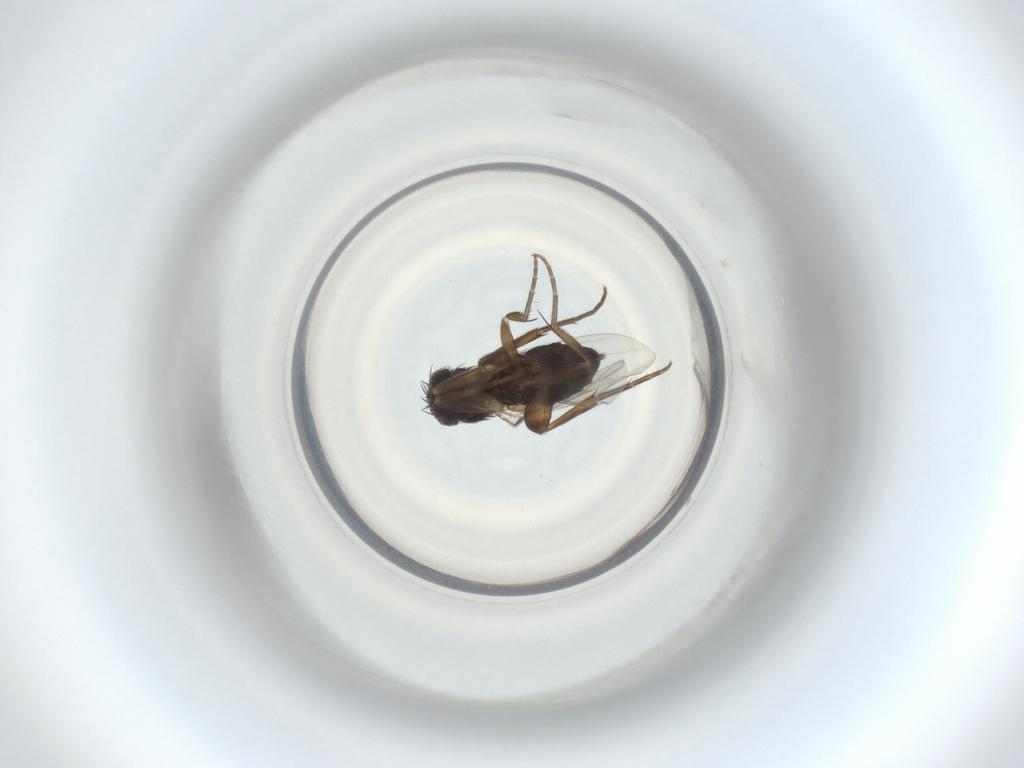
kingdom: Animalia
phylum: Arthropoda
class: Insecta
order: Diptera
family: Phoridae
